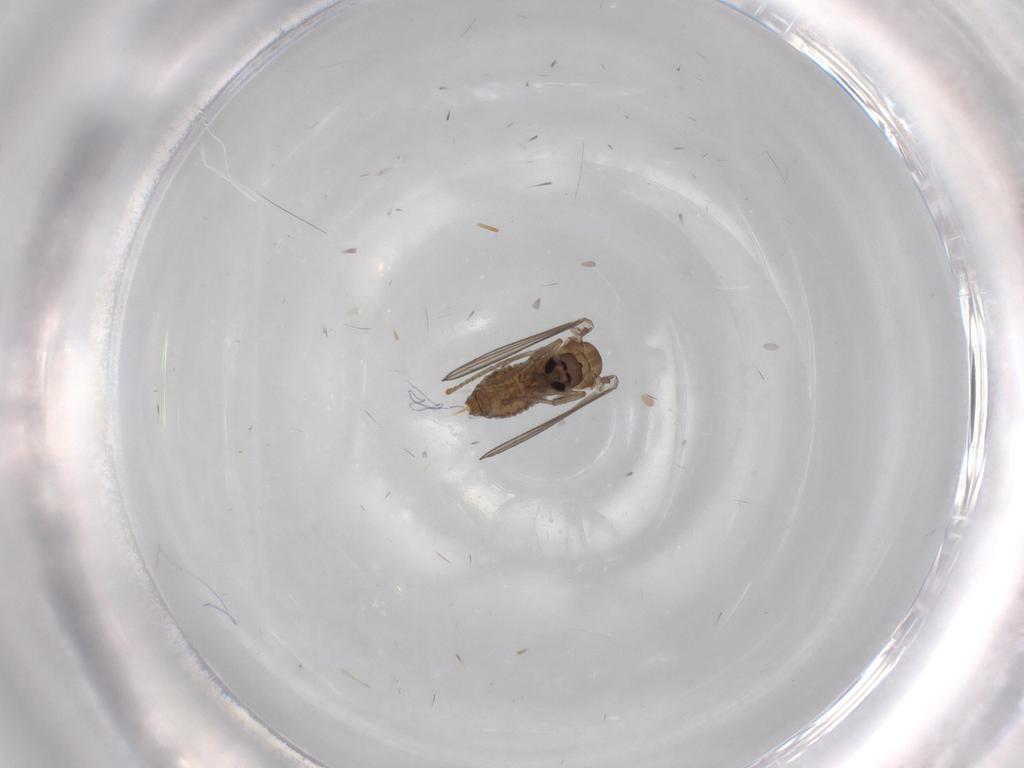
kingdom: Animalia
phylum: Arthropoda
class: Insecta
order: Diptera
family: Psychodidae
